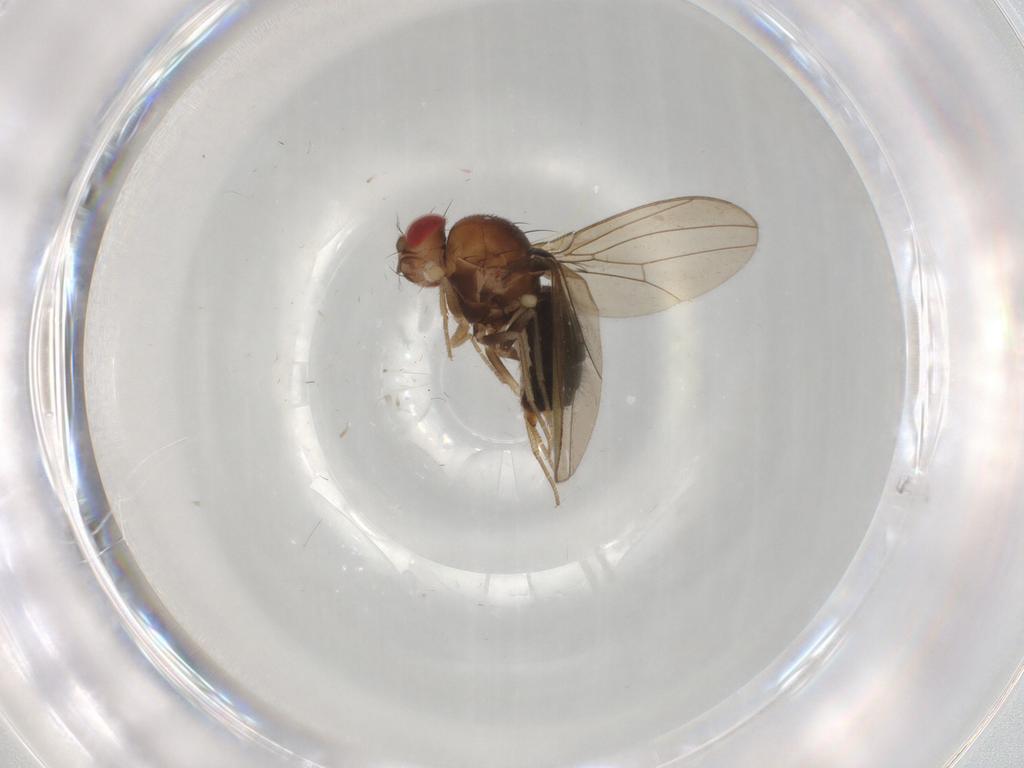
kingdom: Animalia
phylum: Arthropoda
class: Insecta
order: Diptera
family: Drosophilidae
